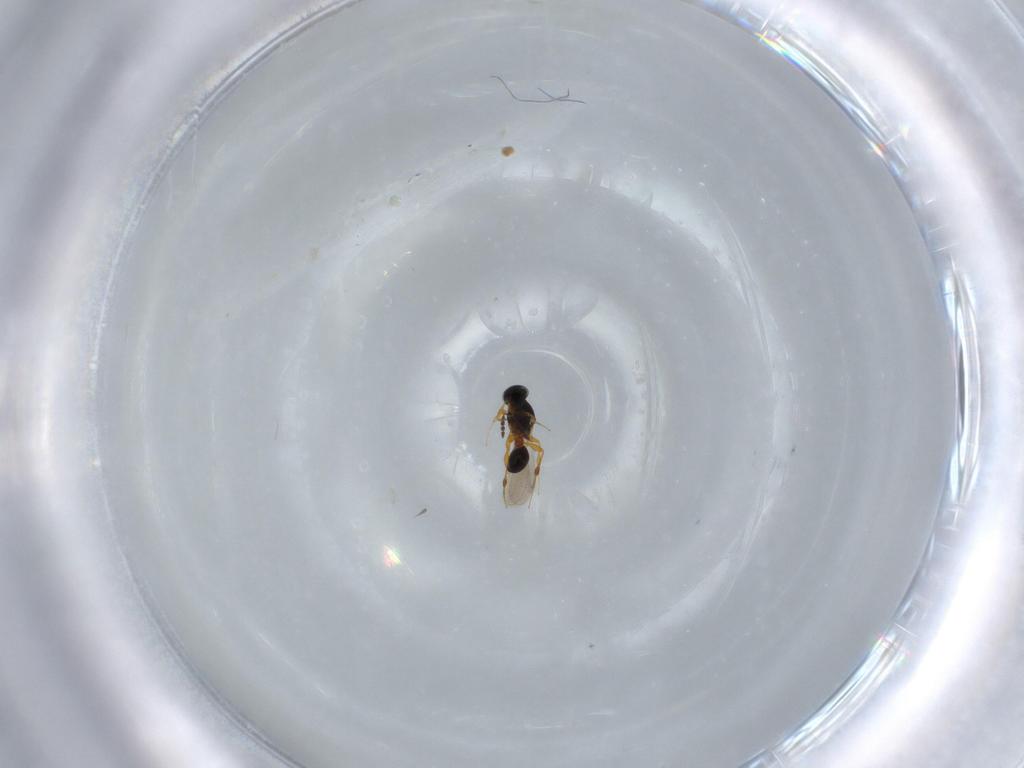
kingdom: Animalia
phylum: Arthropoda
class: Insecta
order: Hymenoptera
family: Platygastridae
